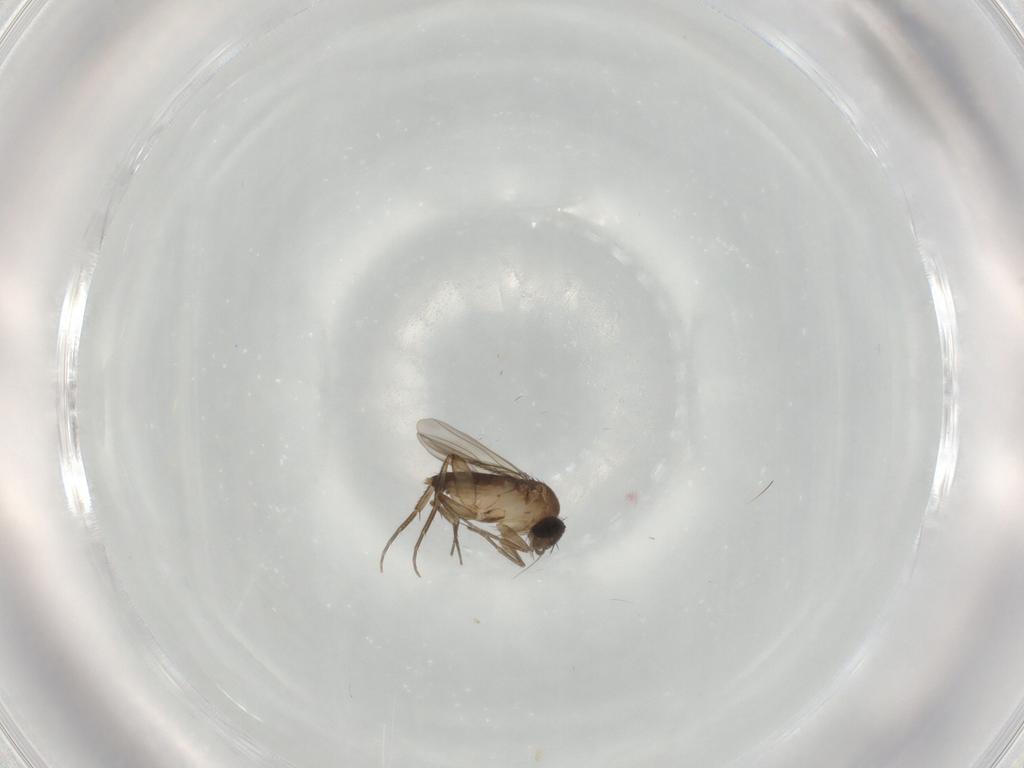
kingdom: Animalia
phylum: Arthropoda
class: Insecta
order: Diptera
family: Phoridae
